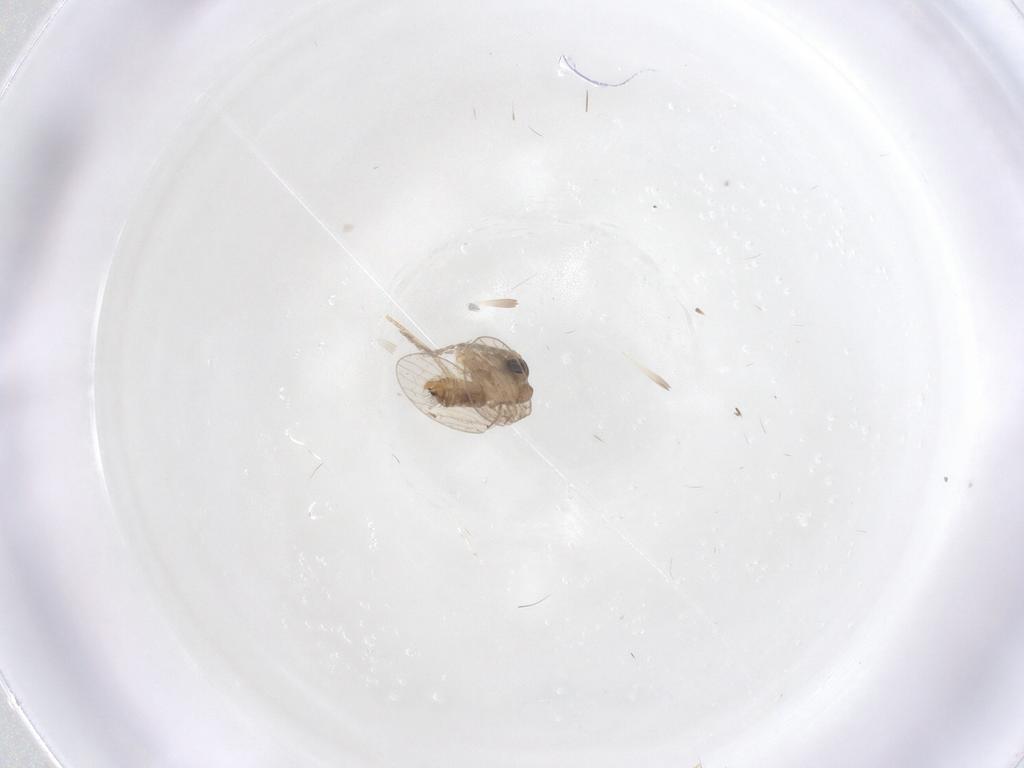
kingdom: Animalia
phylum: Arthropoda
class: Insecta
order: Diptera
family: Psychodidae
